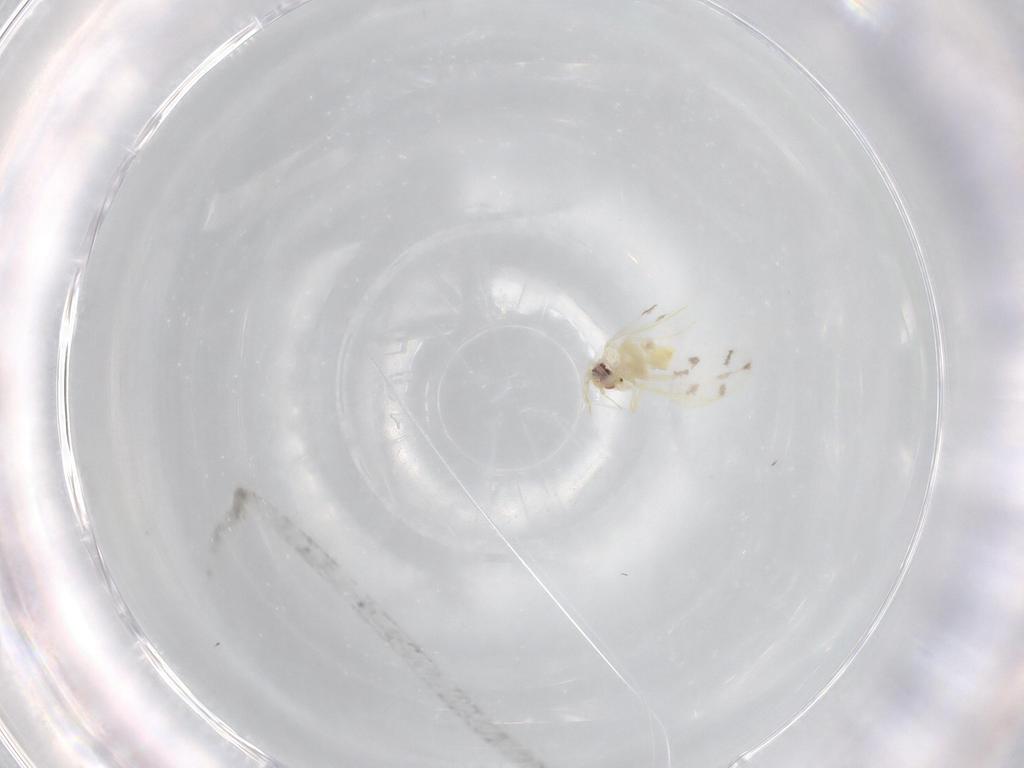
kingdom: Animalia
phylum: Arthropoda
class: Insecta
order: Hemiptera
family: Aleyrodidae
